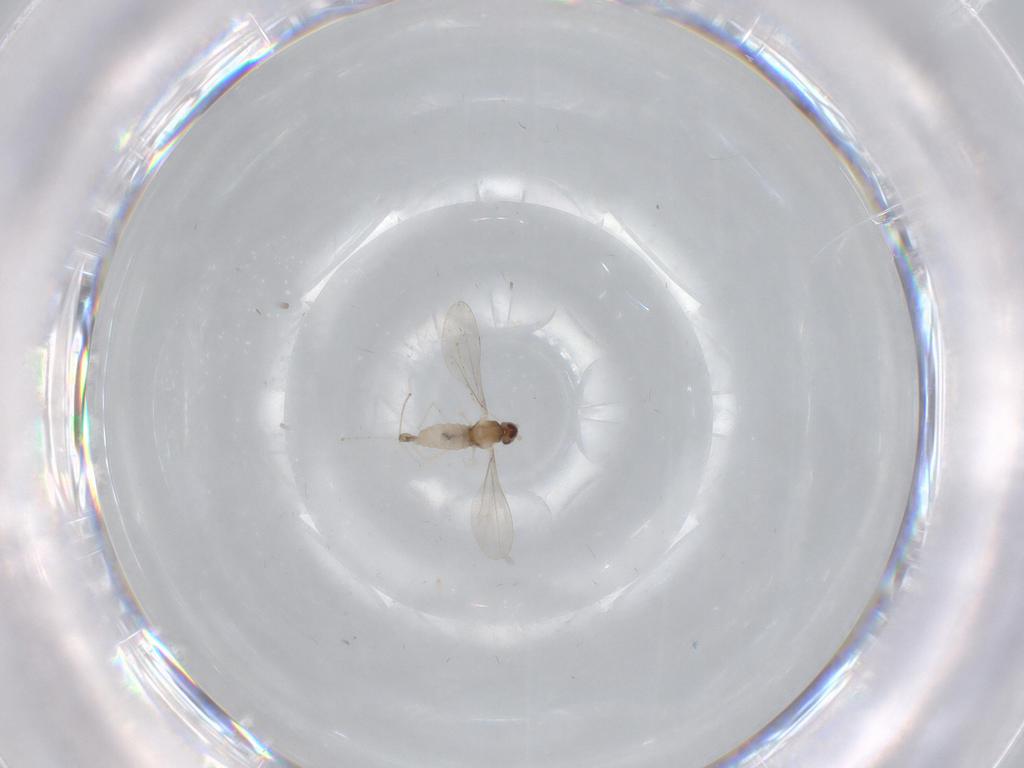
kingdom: Animalia
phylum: Arthropoda
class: Insecta
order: Diptera
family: Cecidomyiidae
